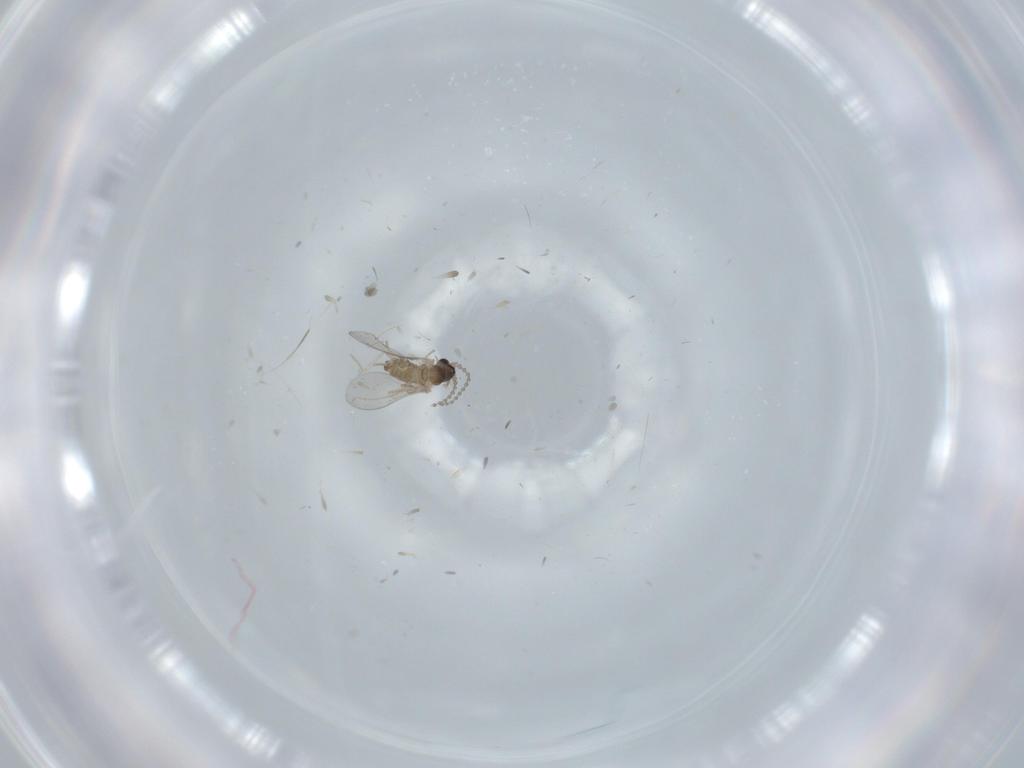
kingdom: Animalia
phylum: Arthropoda
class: Insecta
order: Diptera
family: Cecidomyiidae
